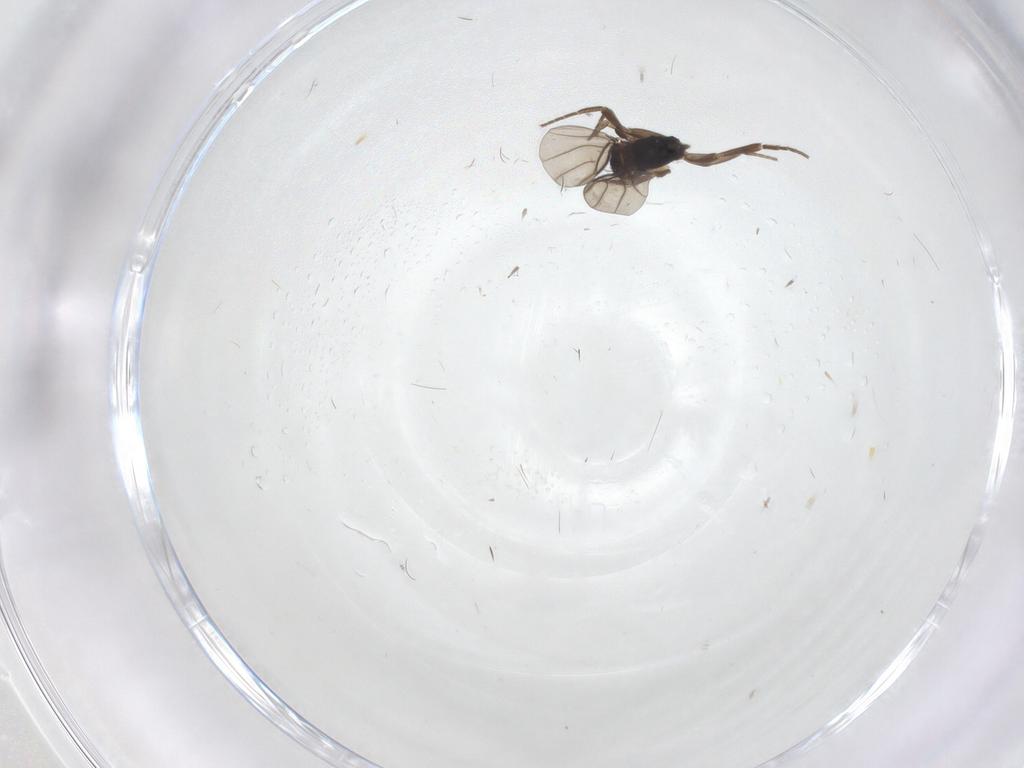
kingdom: Animalia
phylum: Arthropoda
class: Insecta
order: Diptera
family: Phoridae
